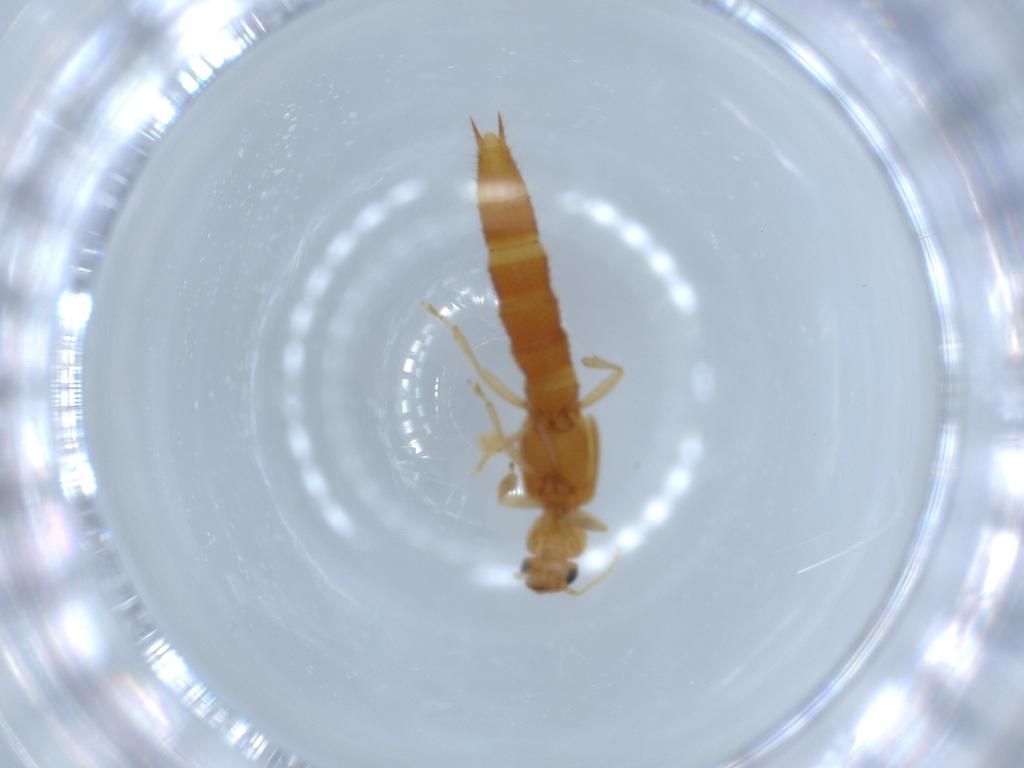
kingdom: Animalia
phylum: Arthropoda
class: Insecta
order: Coleoptera
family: Staphylinidae
